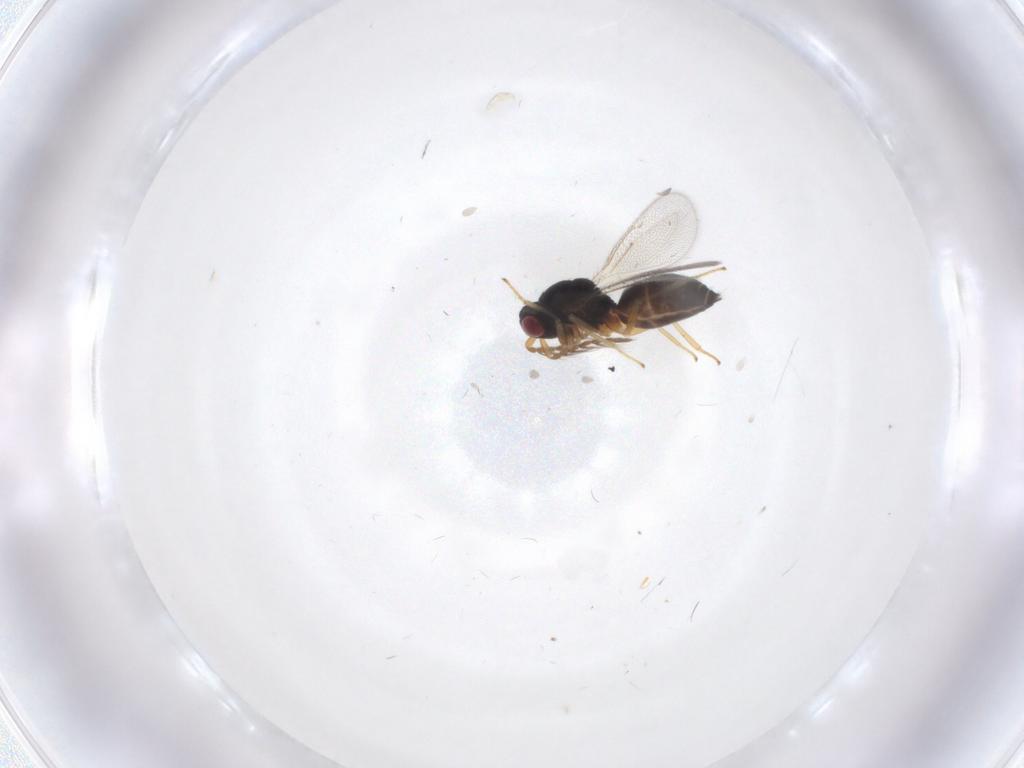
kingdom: Animalia
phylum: Arthropoda
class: Insecta
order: Hymenoptera
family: Eulophidae
